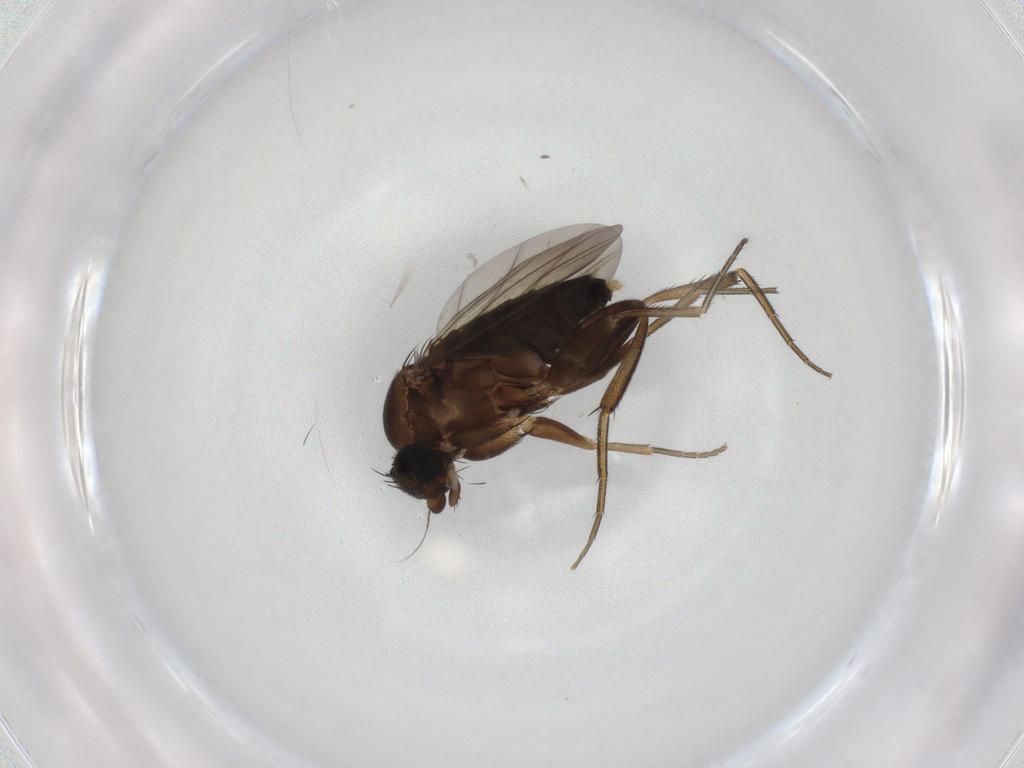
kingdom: Animalia
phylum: Arthropoda
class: Insecta
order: Diptera
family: Phoridae
